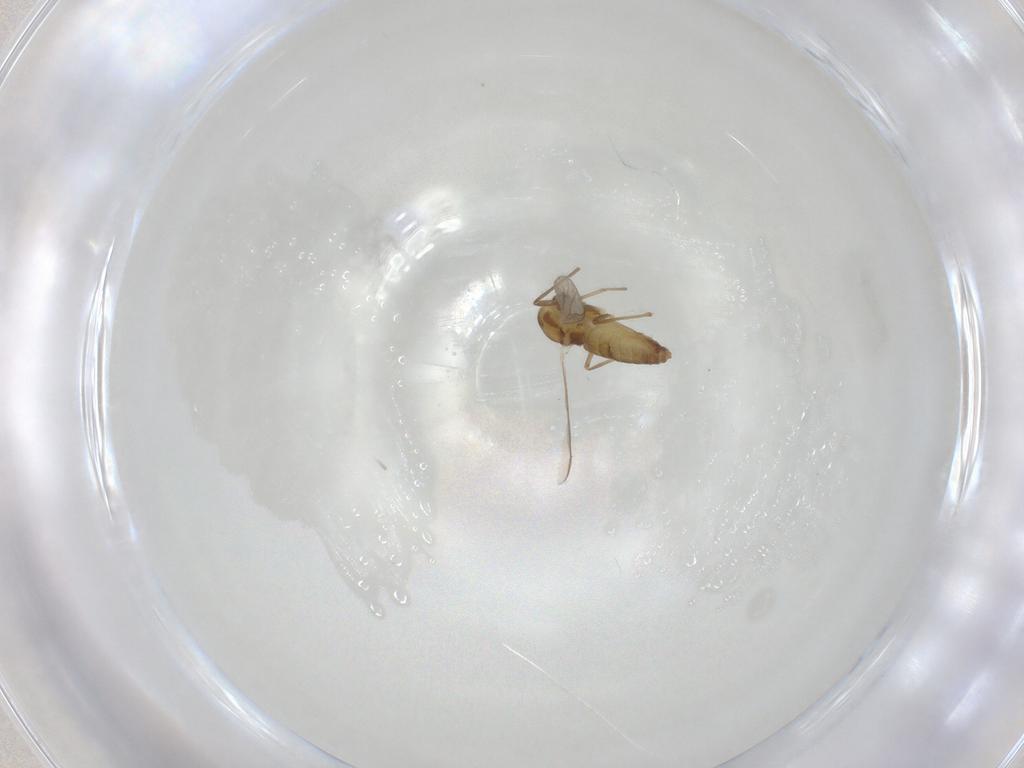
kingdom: Animalia
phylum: Arthropoda
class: Insecta
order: Diptera
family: Chironomidae
